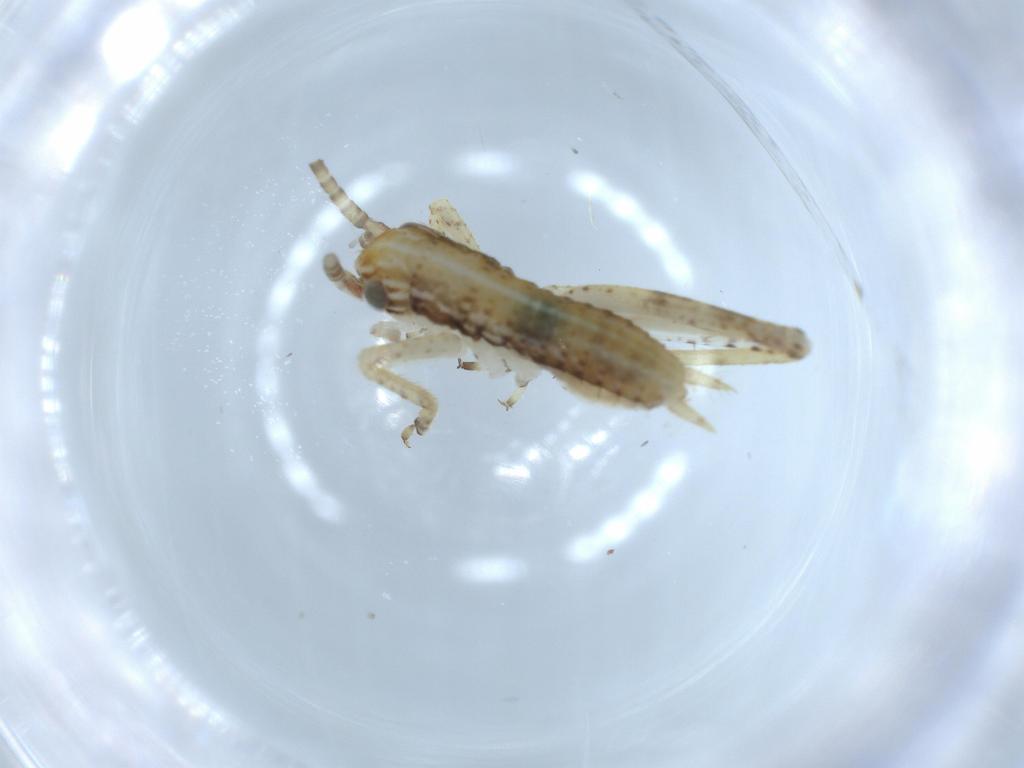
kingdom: Animalia
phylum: Arthropoda
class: Insecta
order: Orthoptera
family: Gryllidae
